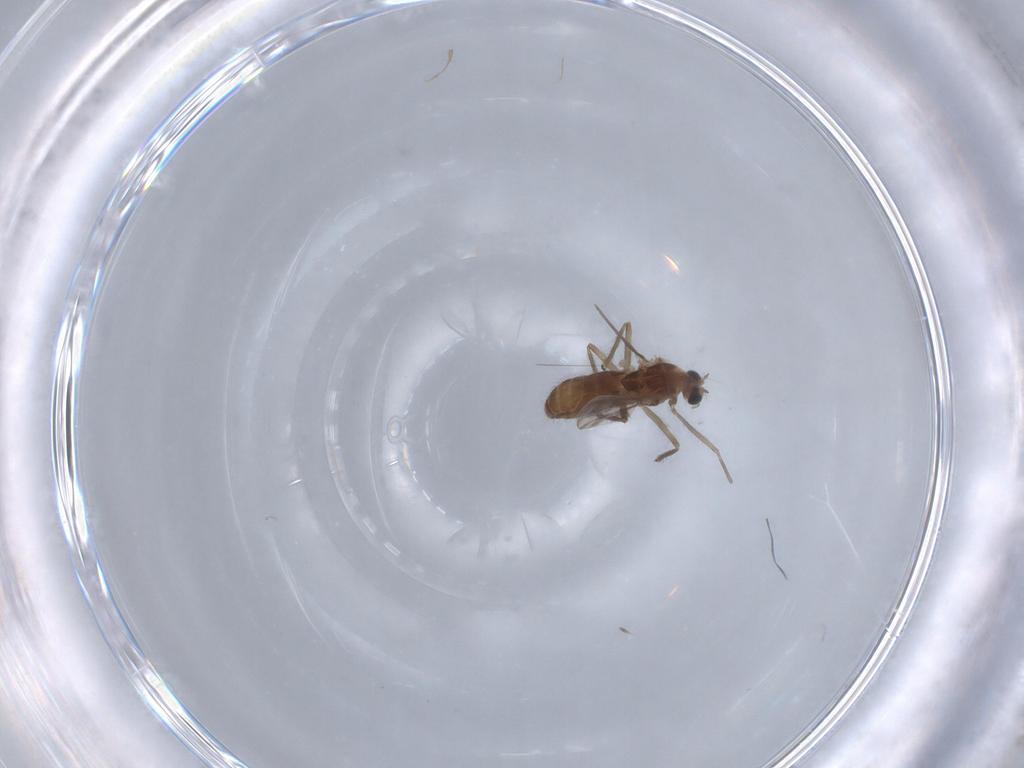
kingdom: Animalia
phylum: Arthropoda
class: Insecta
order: Diptera
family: Chironomidae
